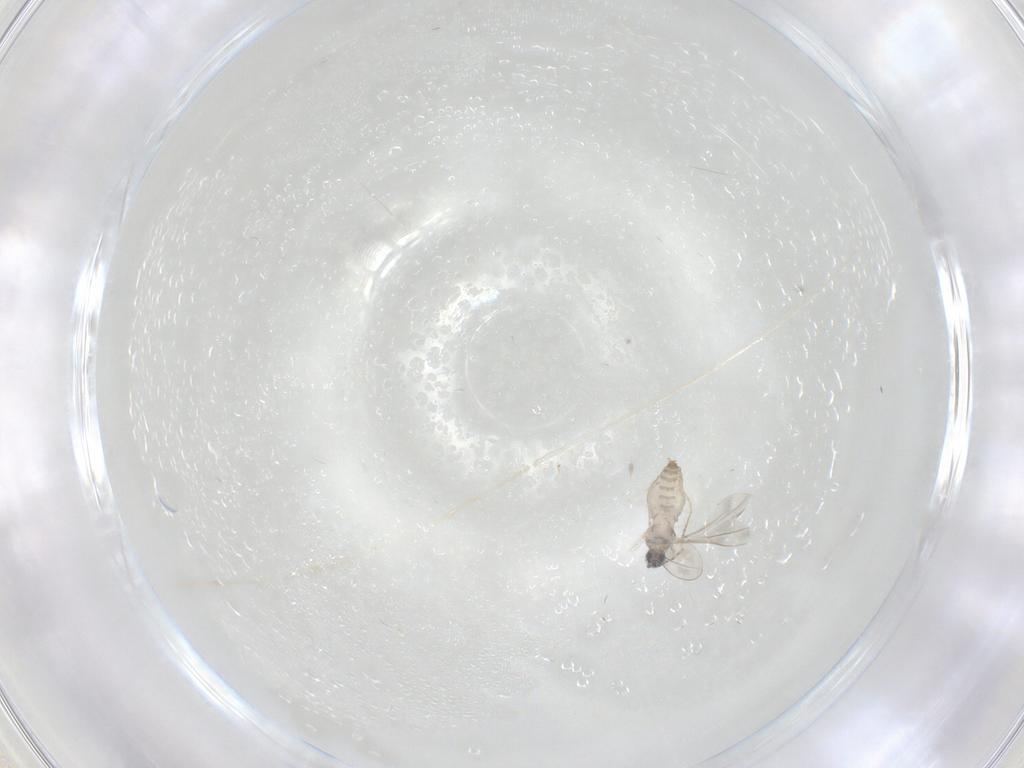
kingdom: Animalia
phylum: Arthropoda
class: Insecta
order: Diptera
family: Cecidomyiidae
